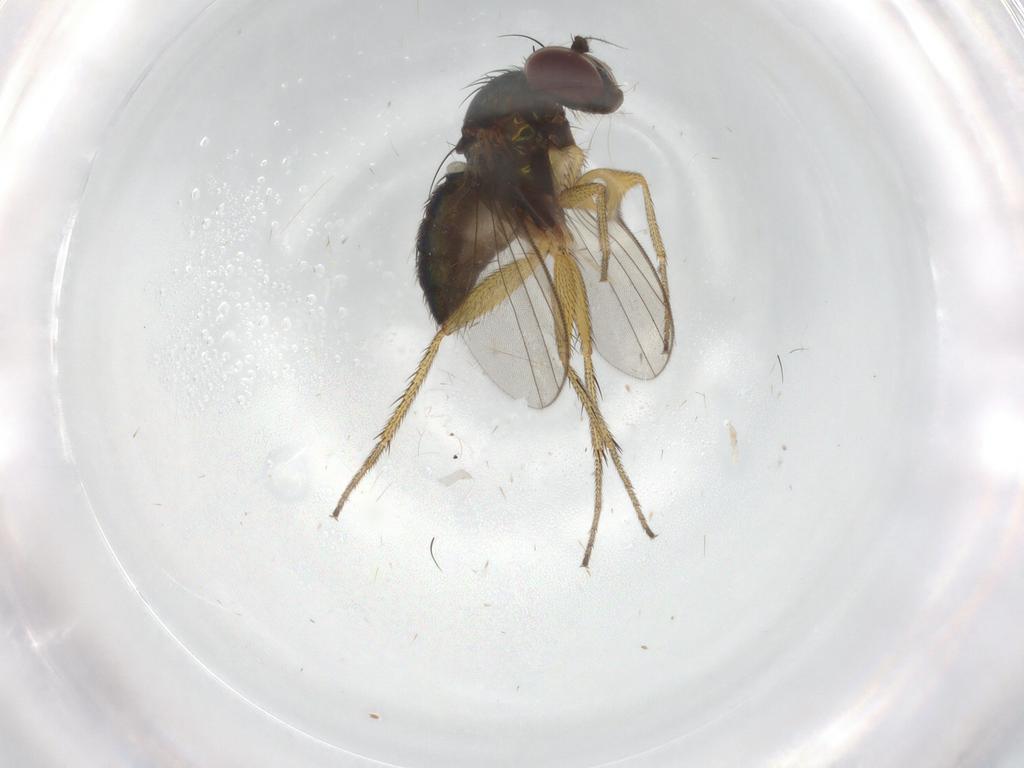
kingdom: Animalia
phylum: Arthropoda
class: Insecta
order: Diptera
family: Dolichopodidae
